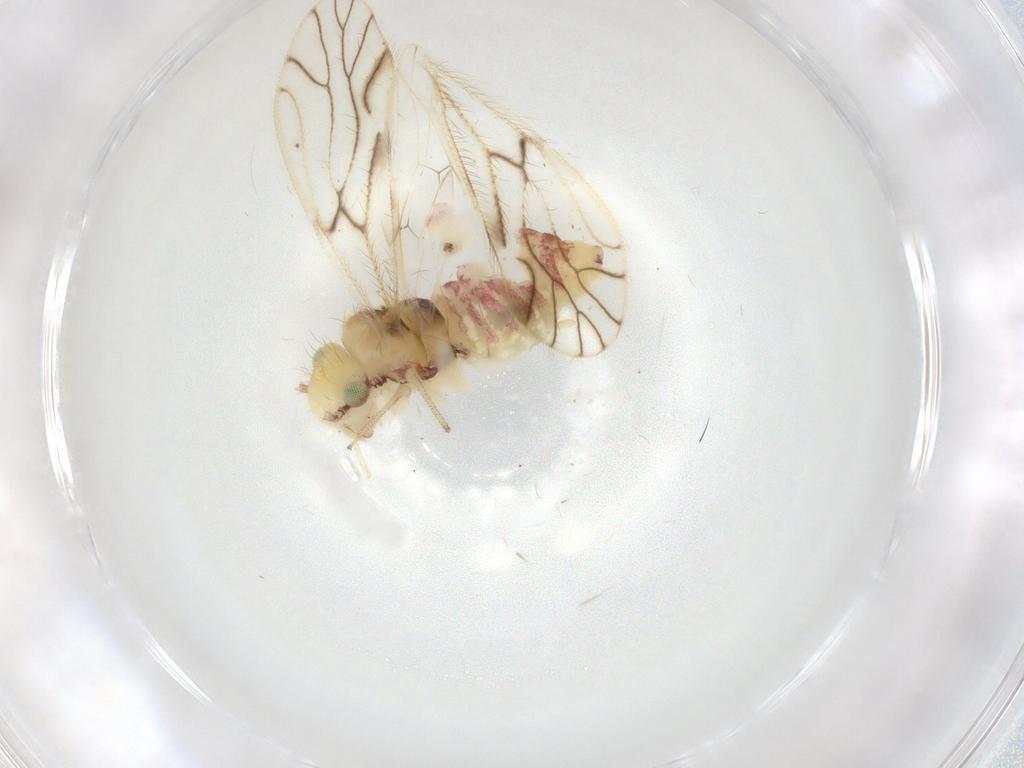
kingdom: Animalia
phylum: Arthropoda
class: Insecta
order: Psocodea
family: Philotarsidae
